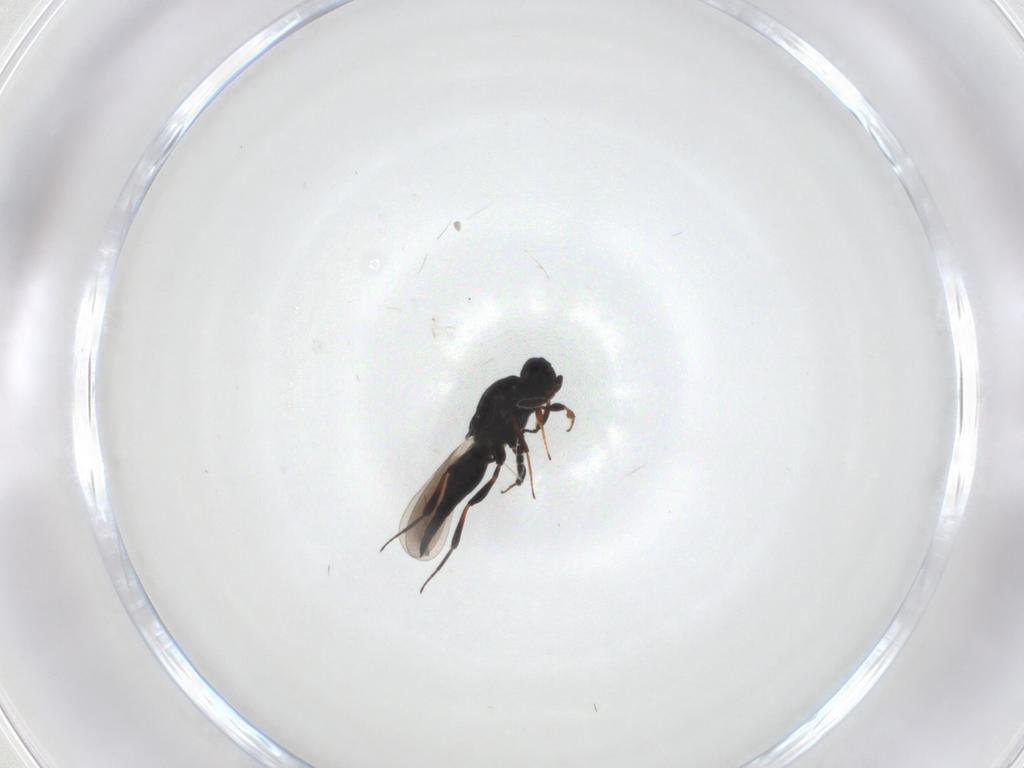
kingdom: Animalia
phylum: Arthropoda
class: Insecta
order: Hymenoptera
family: Platygastridae
